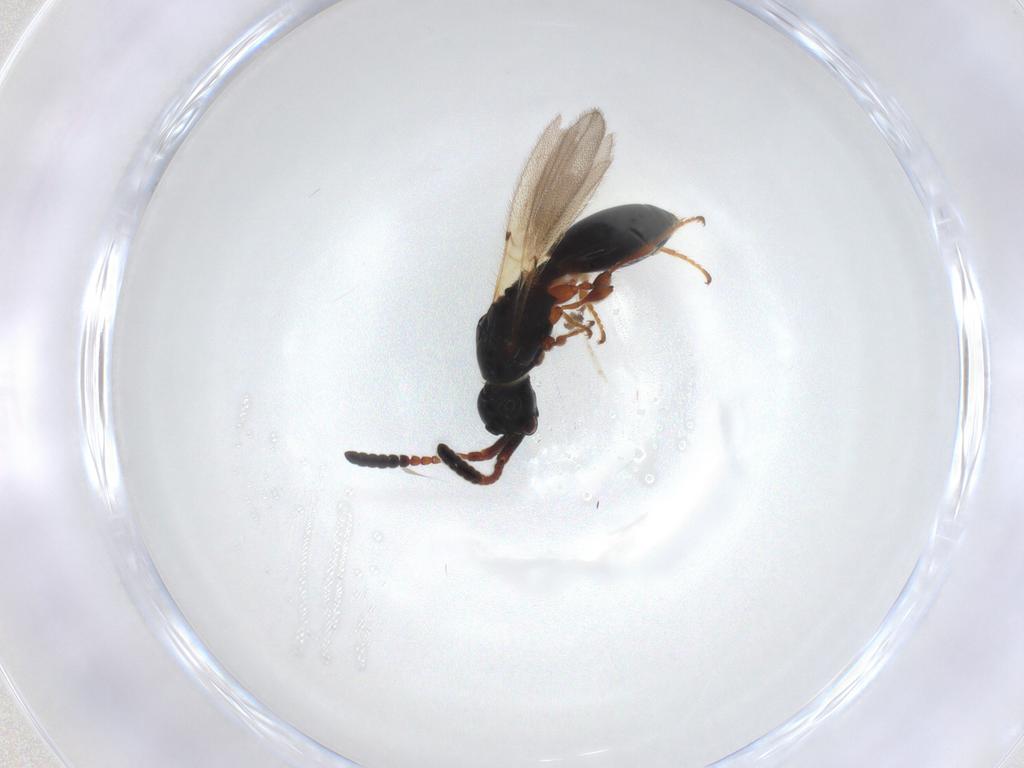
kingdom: Animalia
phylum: Arthropoda
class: Insecta
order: Hymenoptera
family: Diapriidae
